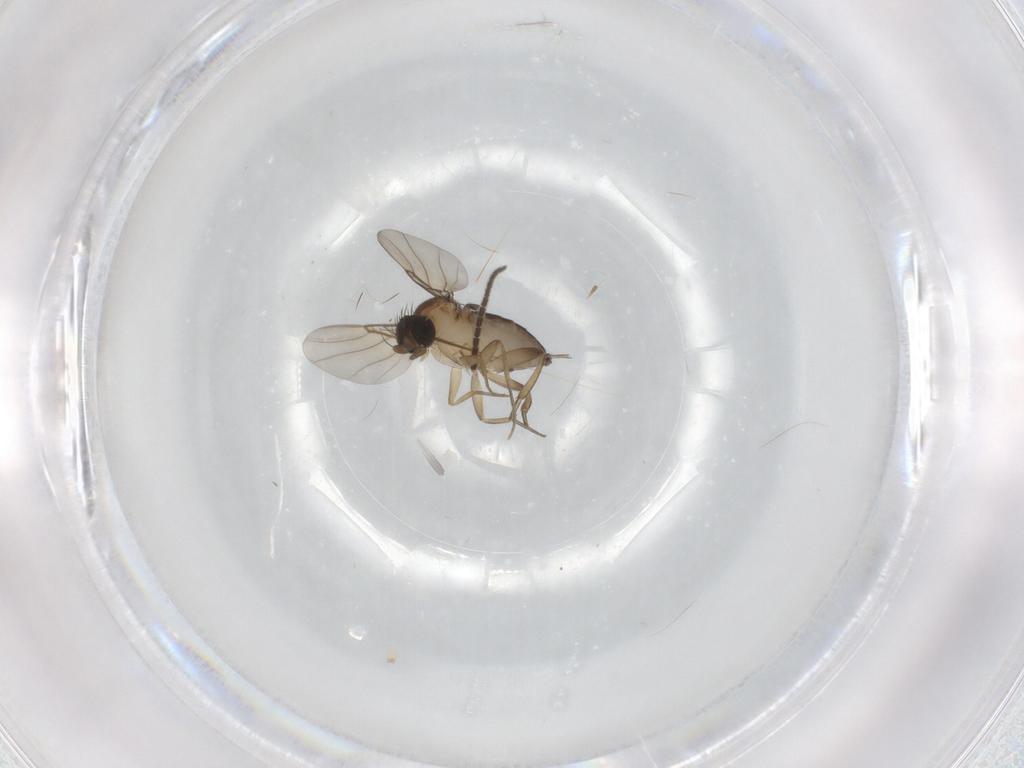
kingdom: Animalia
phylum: Arthropoda
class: Insecta
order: Diptera
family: Sciaridae
